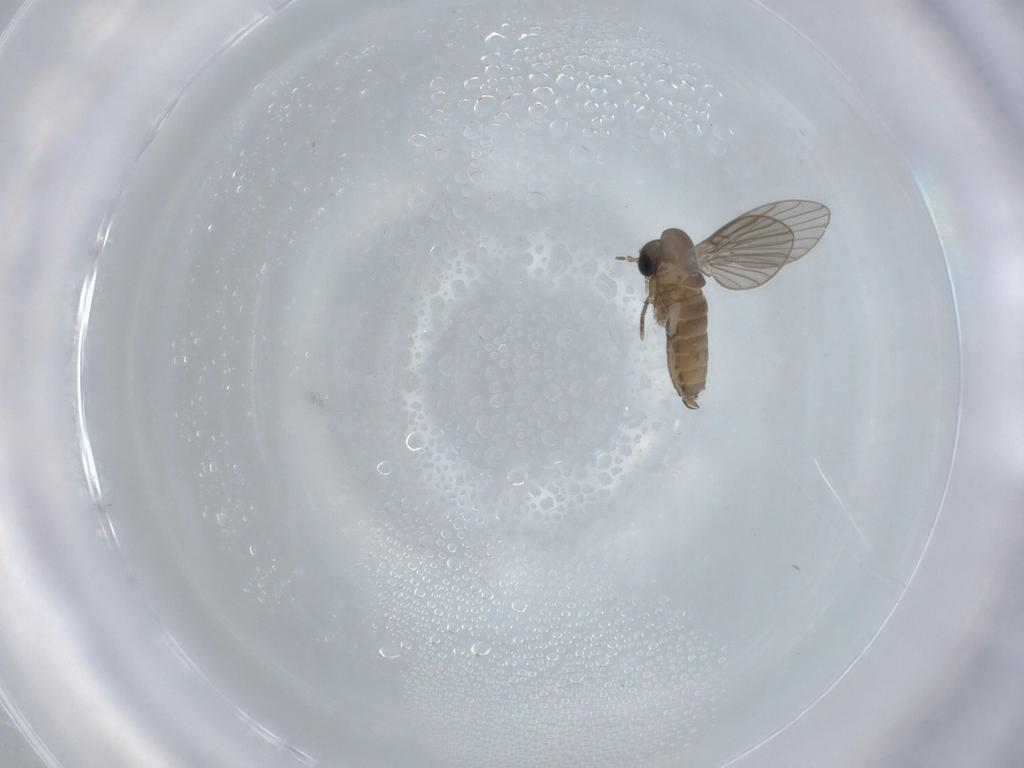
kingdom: Animalia
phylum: Arthropoda
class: Insecta
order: Diptera
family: Psychodidae
